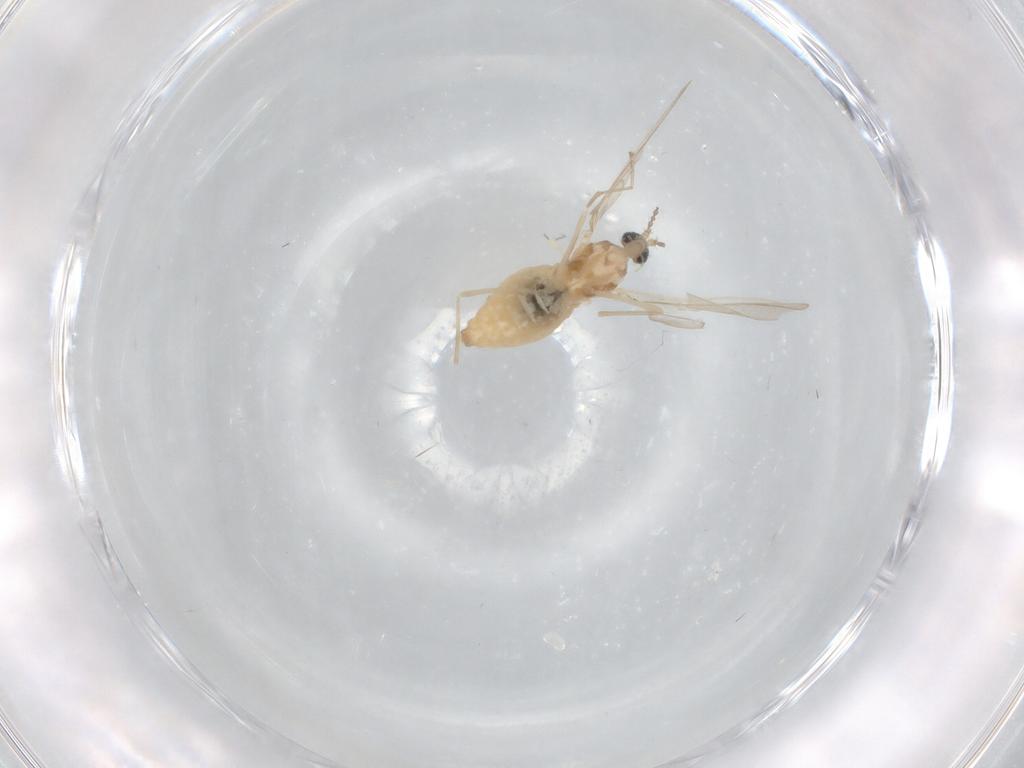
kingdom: Animalia
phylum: Arthropoda
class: Insecta
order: Diptera
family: Cecidomyiidae
